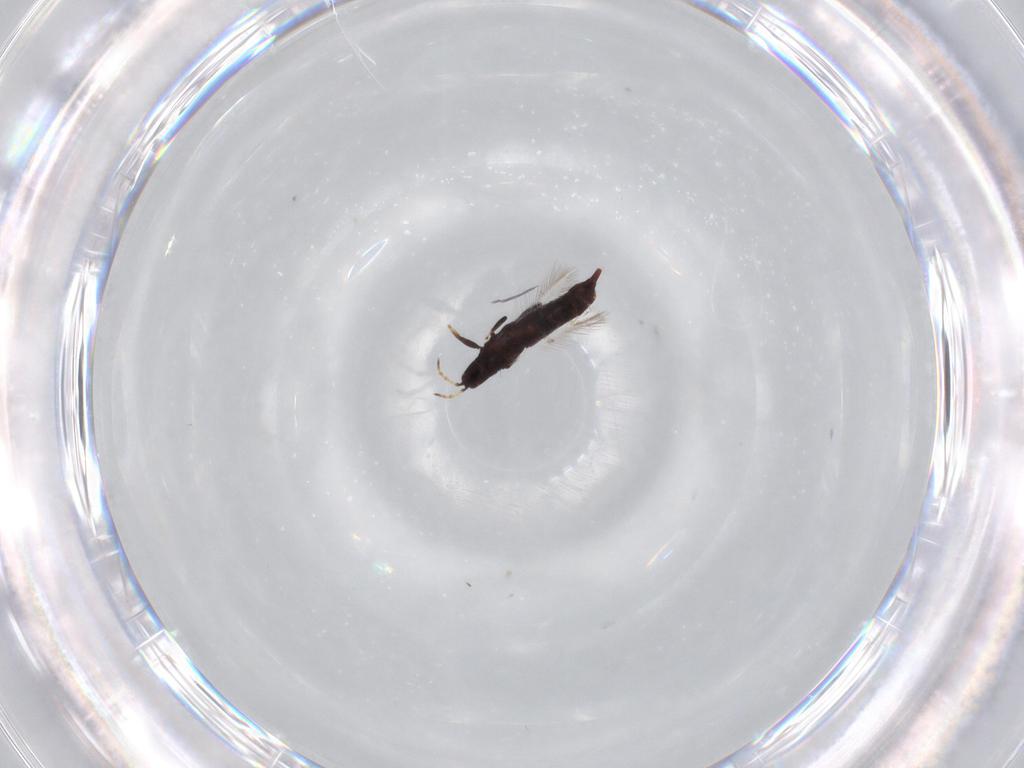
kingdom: Animalia
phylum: Arthropoda
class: Insecta
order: Thysanoptera
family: Phlaeothripidae
